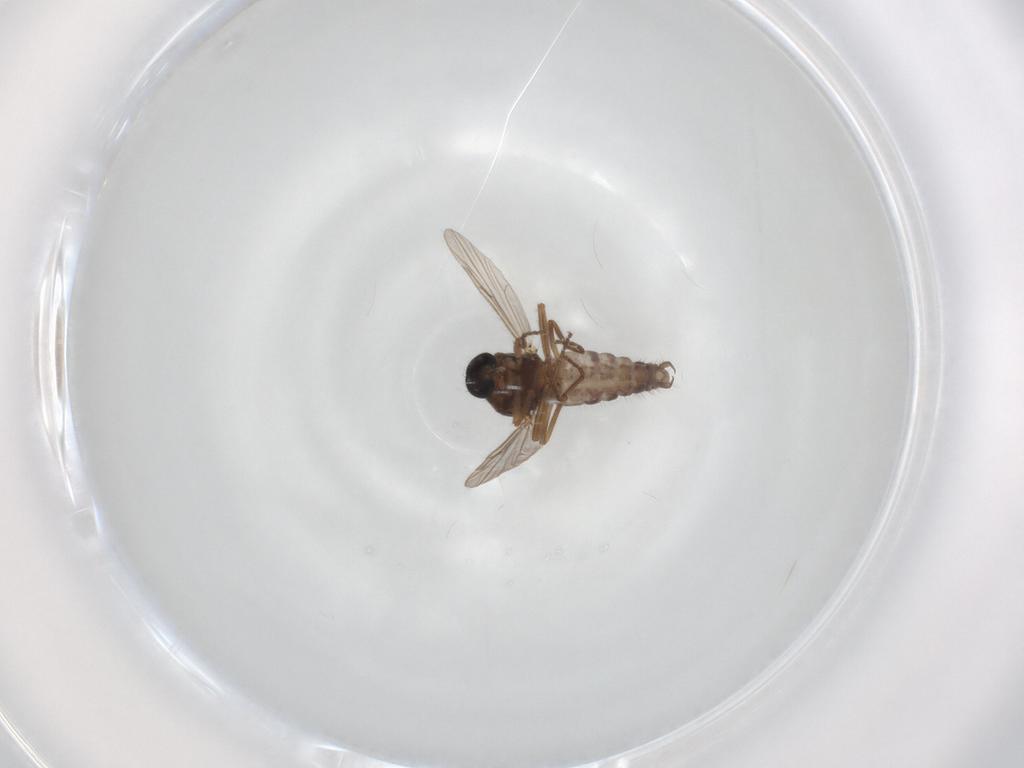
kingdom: Animalia
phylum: Arthropoda
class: Insecta
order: Diptera
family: Ceratopogonidae
